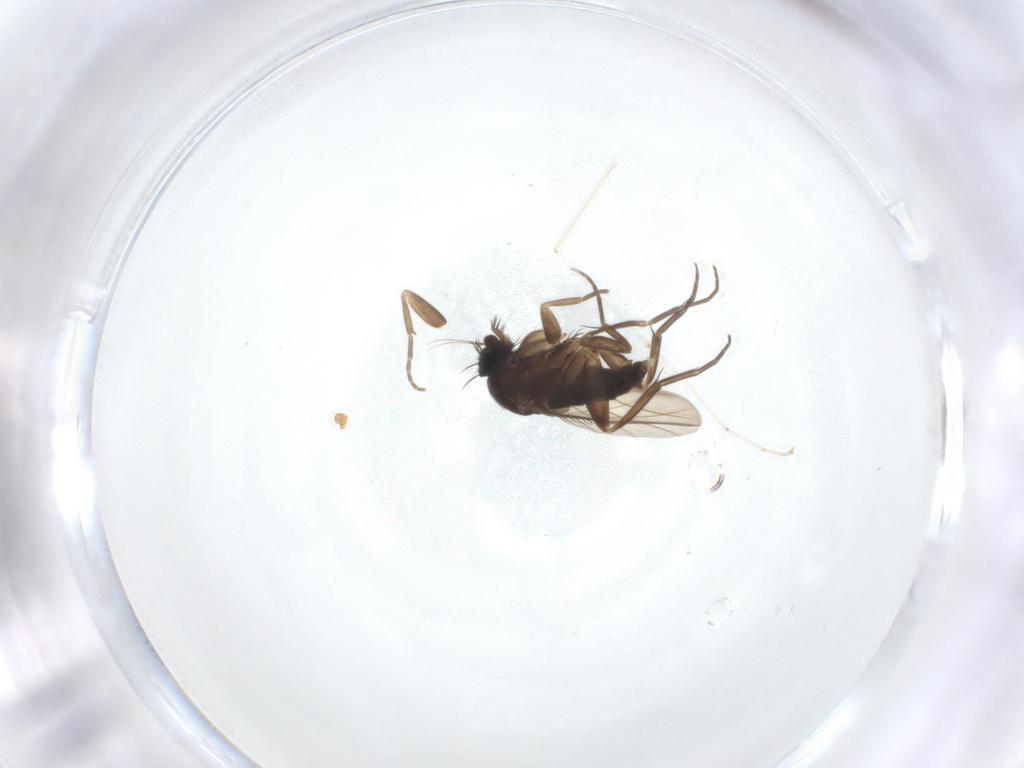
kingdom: Animalia
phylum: Arthropoda
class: Insecta
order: Diptera
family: Phoridae
